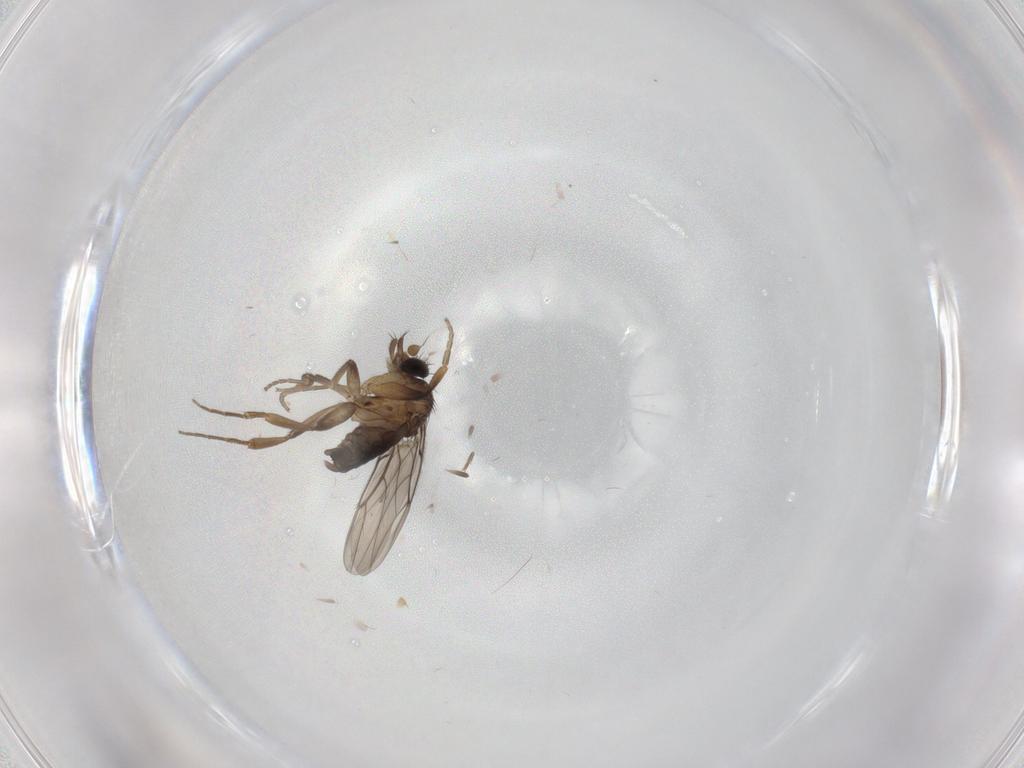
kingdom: Animalia
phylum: Arthropoda
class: Insecta
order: Diptera
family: Phoridae
